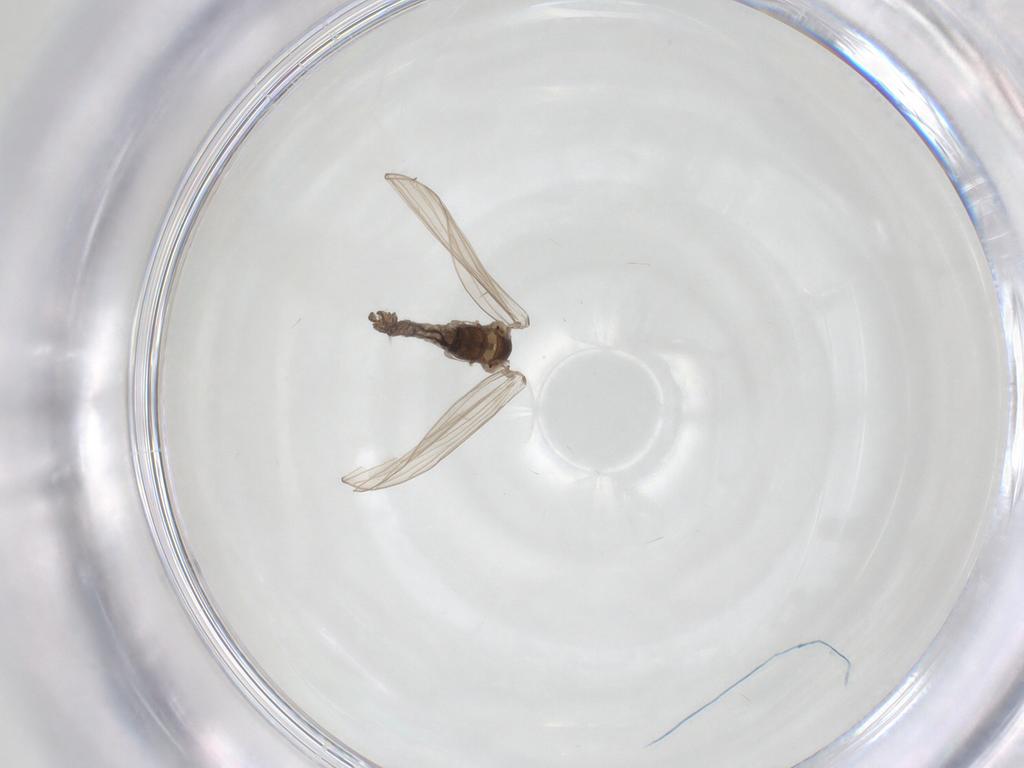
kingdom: Animalia
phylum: Arthropoda
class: Insecta
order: Diptera
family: Psychodidae
